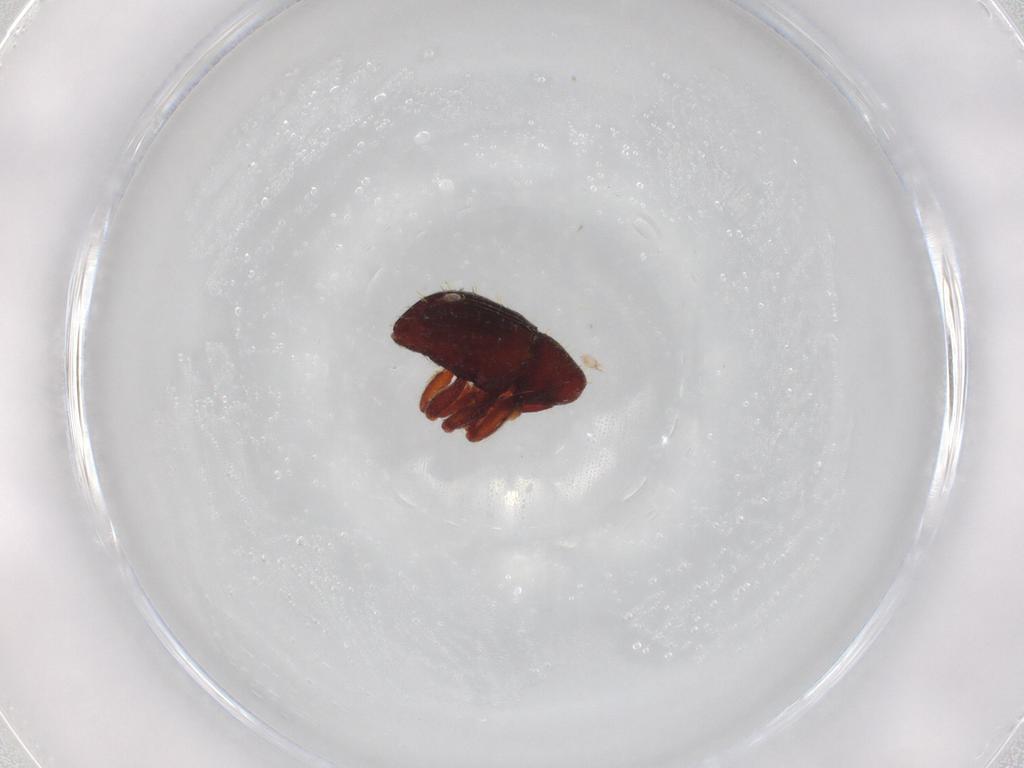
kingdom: Animalia
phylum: Arthropoda
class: Insecta
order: Coleoptera
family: Curculionidae
